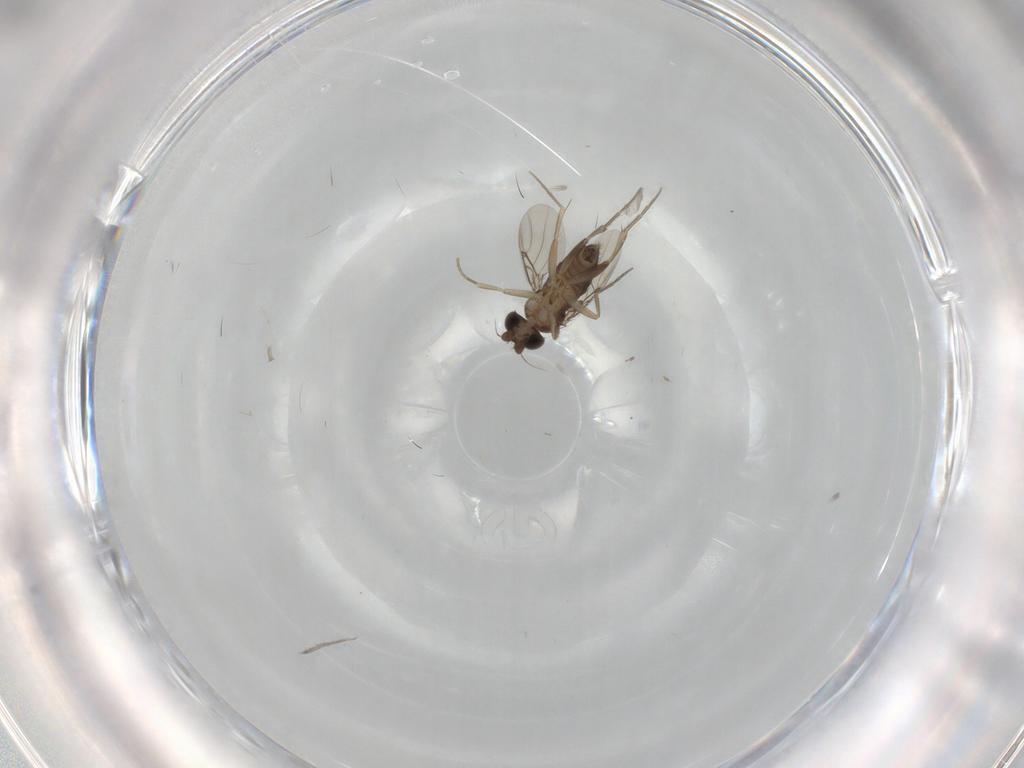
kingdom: Animalia
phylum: Arthropoda
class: Insecta
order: Diptera
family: Phoridae
